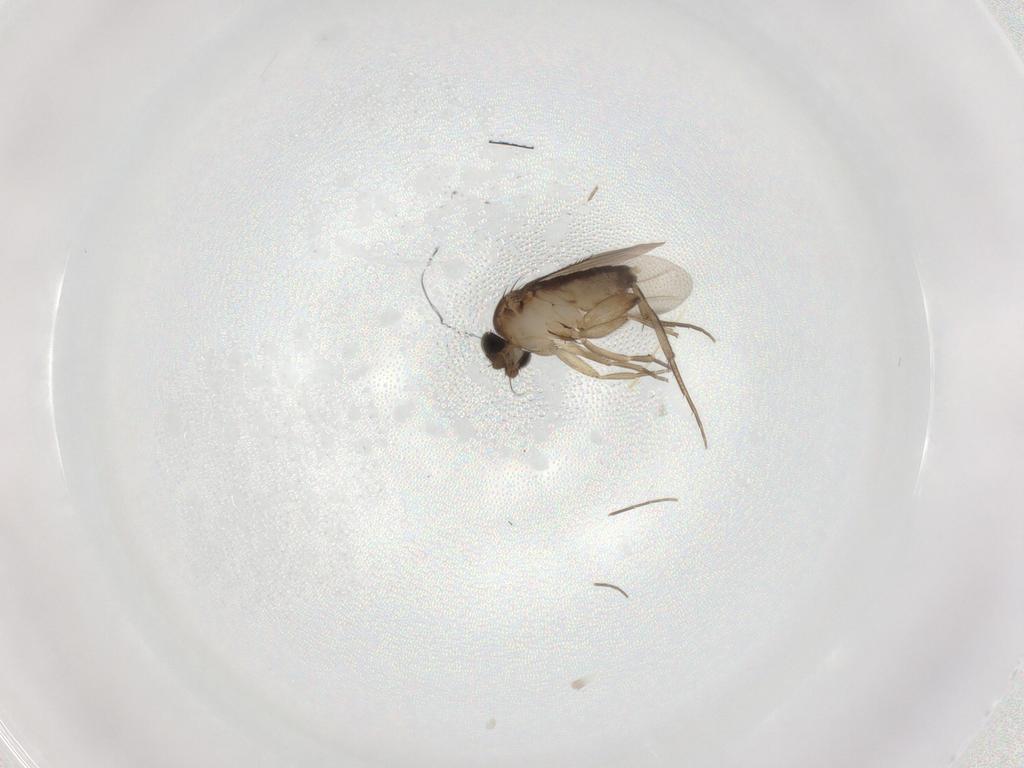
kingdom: Animalia
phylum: Arthropoda
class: Insecta
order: Diptera
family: Phoridae
